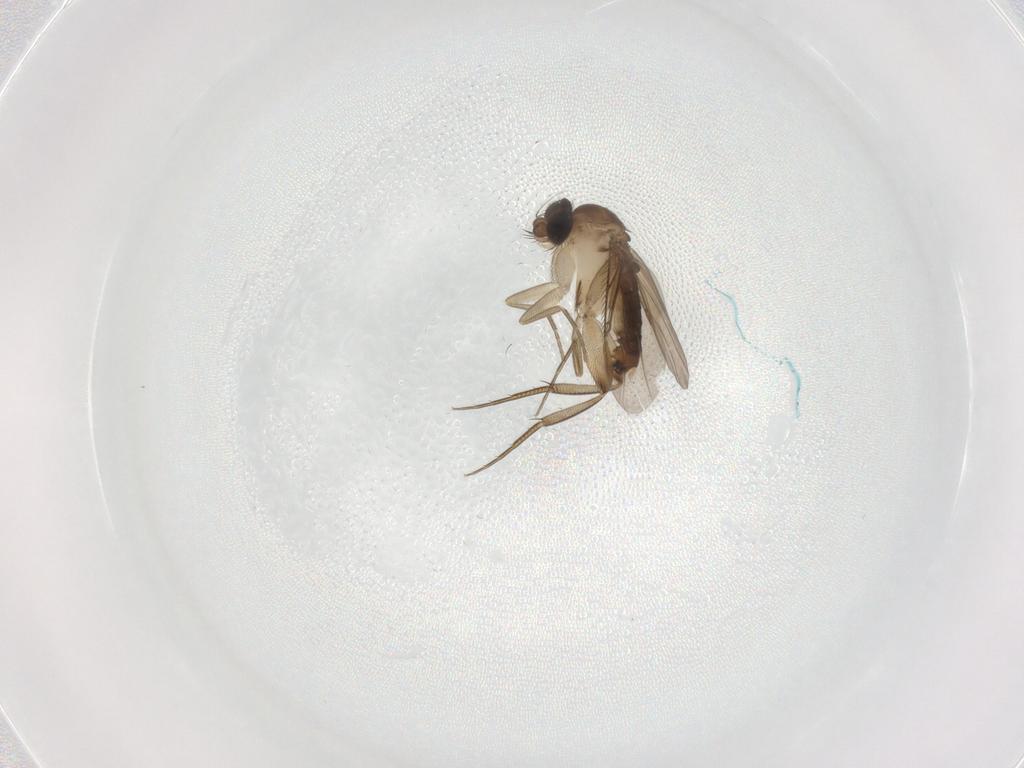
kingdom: Animalia
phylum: Arthropoda
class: Insecta
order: Diptera
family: Phoridae
